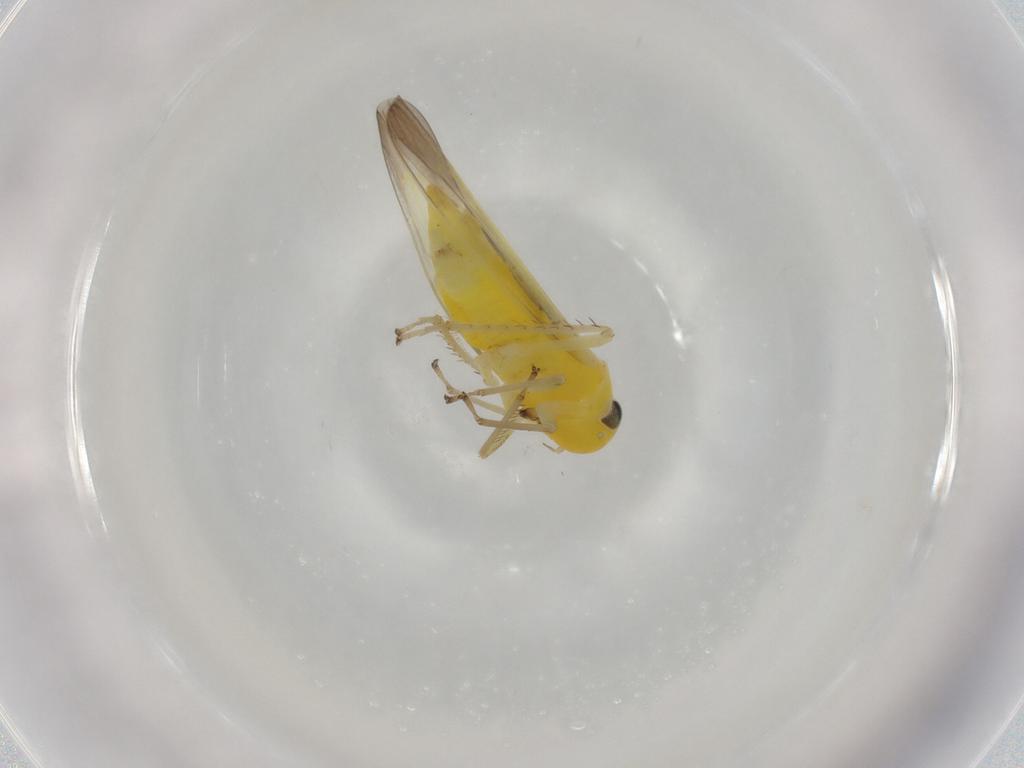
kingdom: Animalia
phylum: Arthropoda
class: Insecta
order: Hemiptera
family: Cicadellidae
